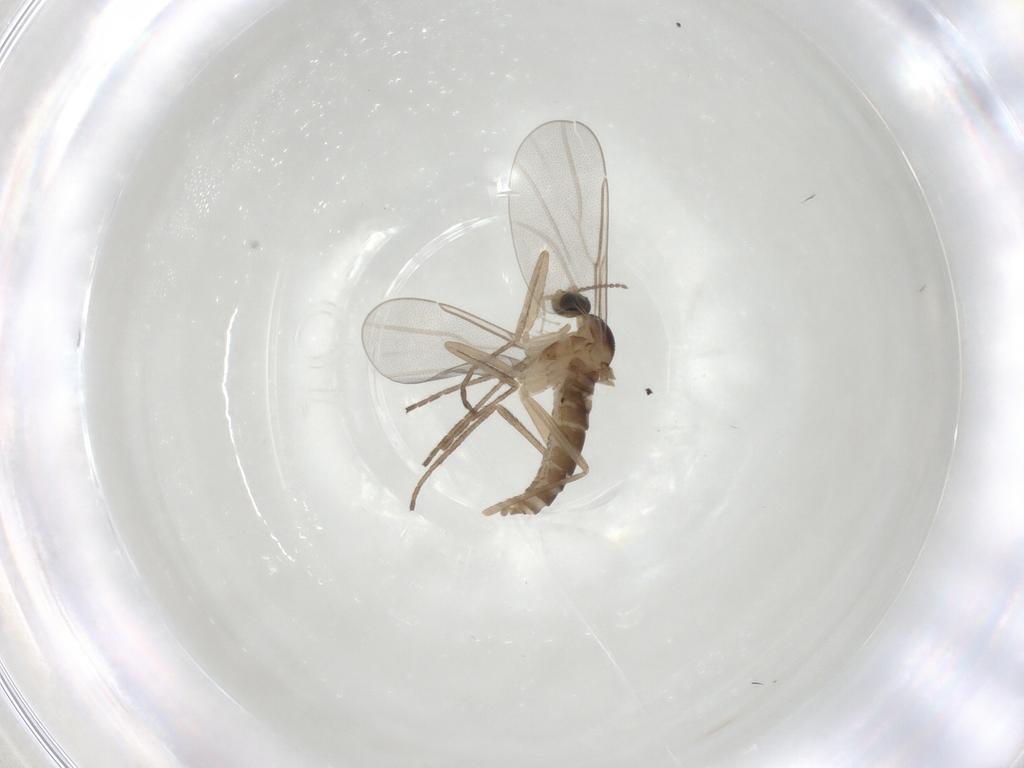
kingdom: Animalia
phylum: Arthropoda
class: Insecta
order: Diptera
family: Cecidomyiidae
